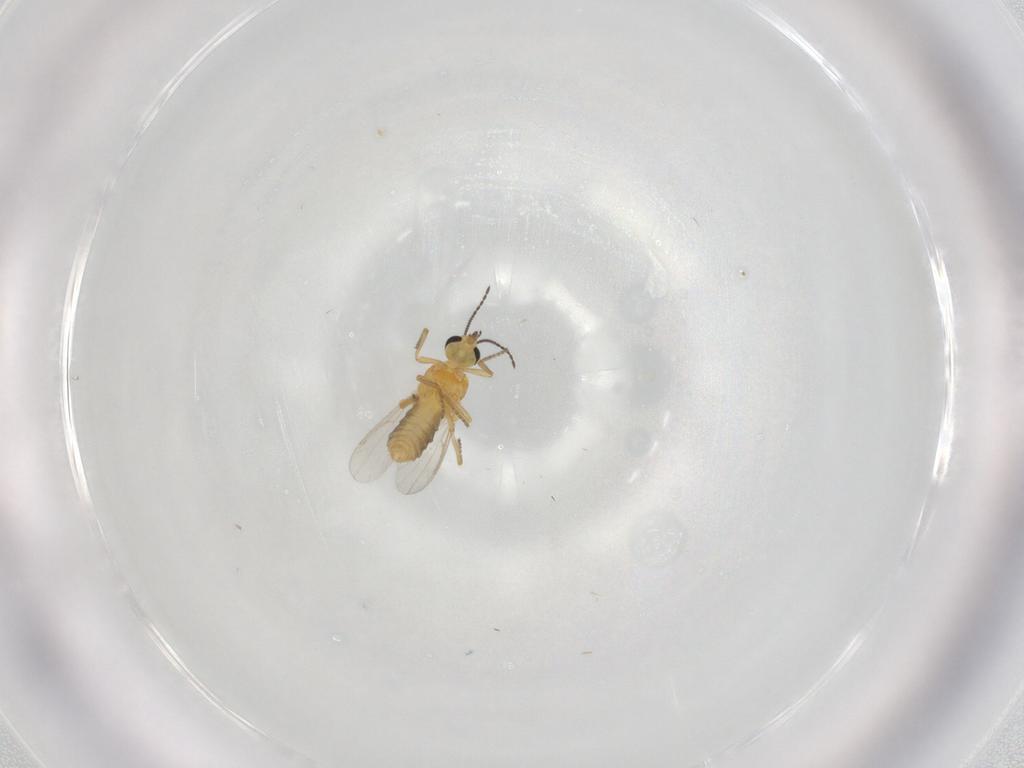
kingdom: Animalia
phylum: Arthropoda
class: Insecta
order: Diptera
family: Ceratopogonidae
